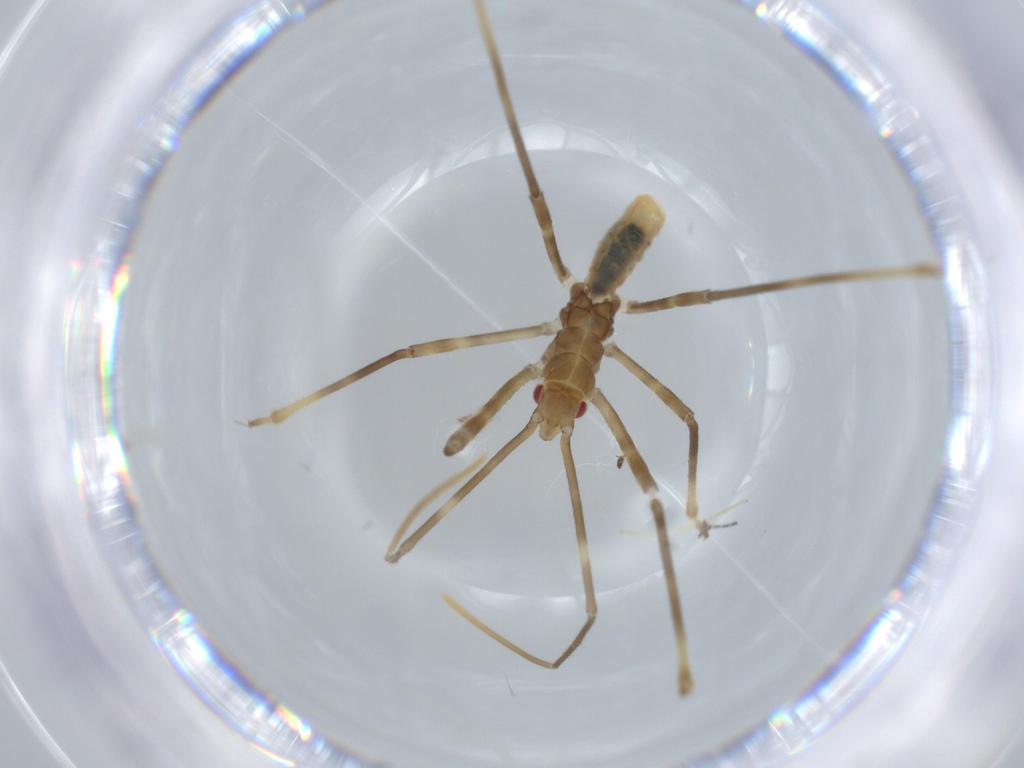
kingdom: Animalia
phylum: Arthropoda
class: Insecta
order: Hemiptera
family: Reduviidae
